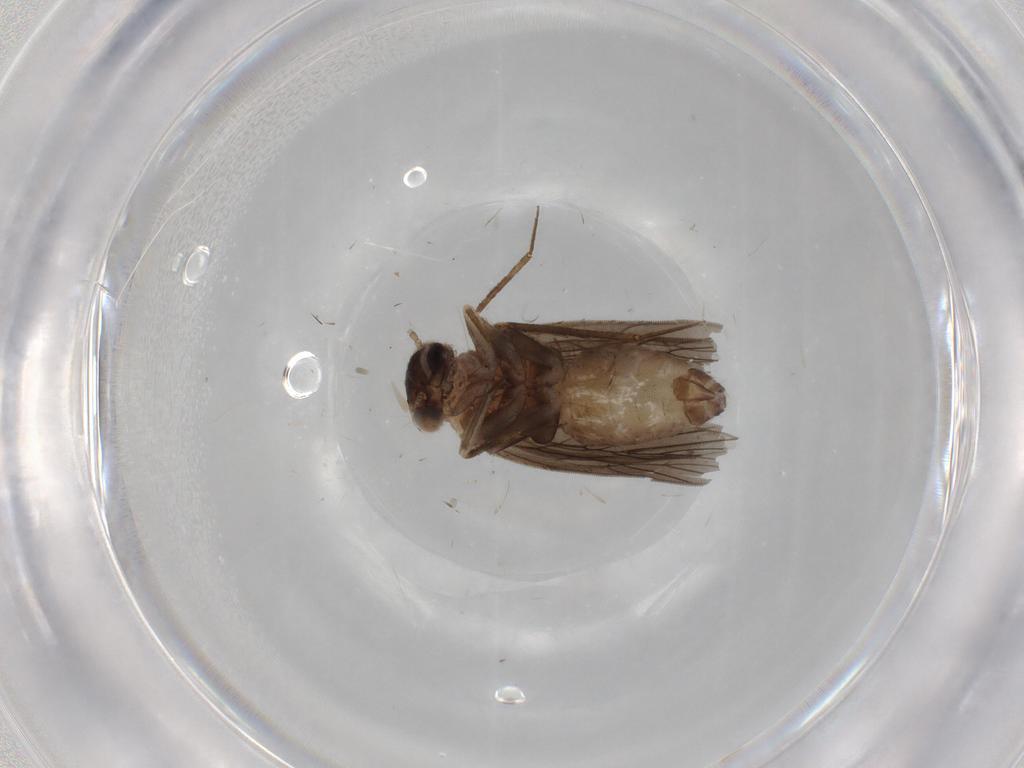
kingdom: Animalia
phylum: Arthropoda
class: Insecta
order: Psocodea
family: Lepidopsocidae
